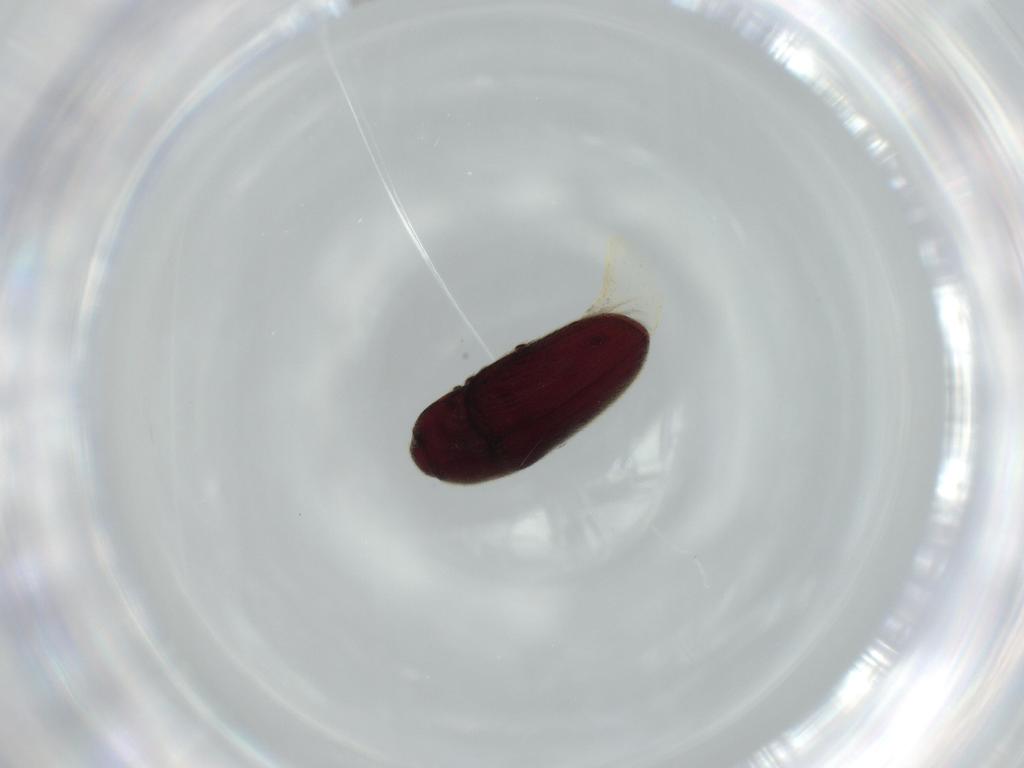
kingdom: Animalia
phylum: Arthropoda
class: Insecta
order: Coleoptera
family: Throscidae
